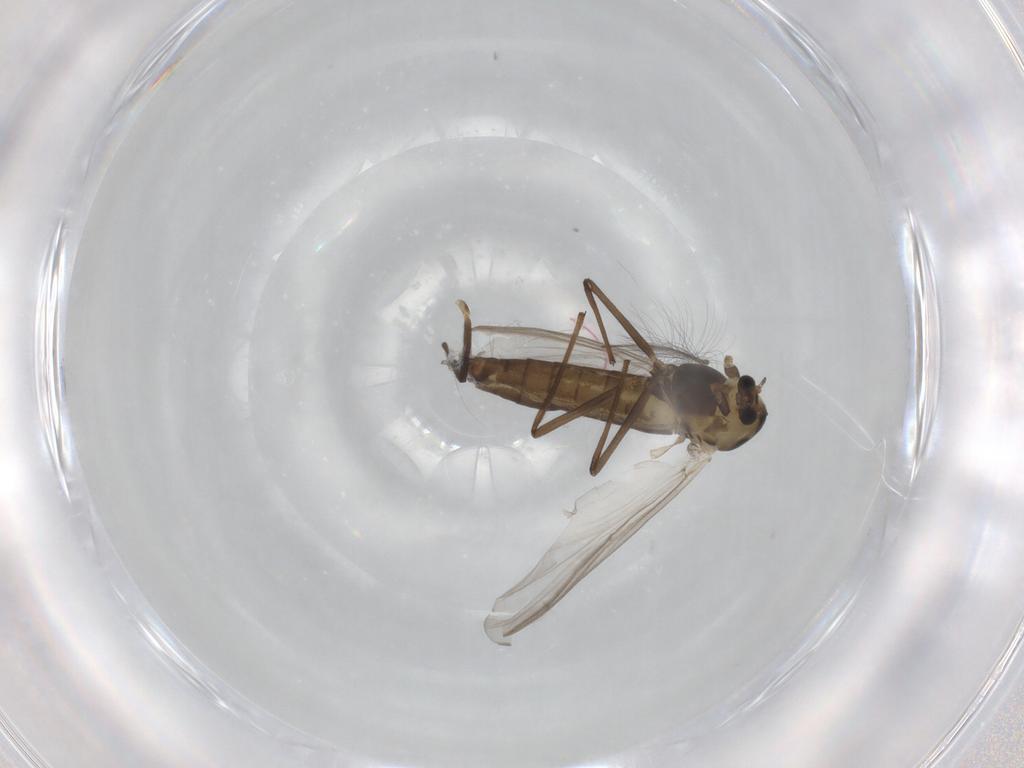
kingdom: Animalia
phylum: Arthropoda
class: Insecta
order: Diptera
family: Chironomidae
